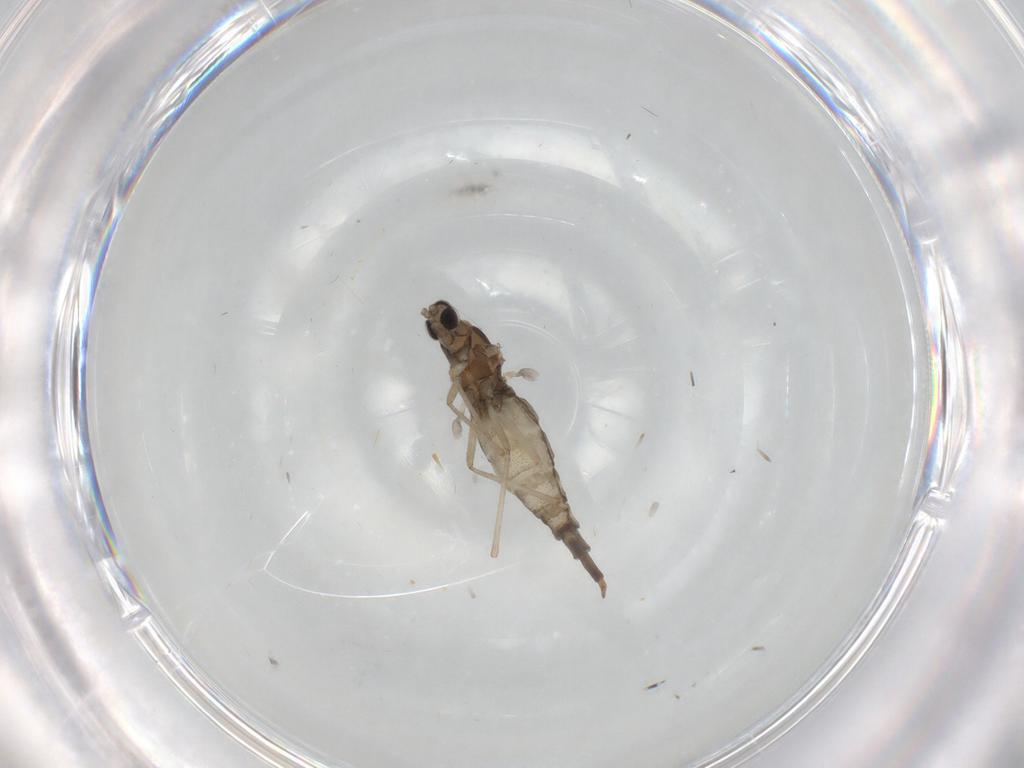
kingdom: Animalia
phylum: Arthropoda
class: Insecta
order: Diptera
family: Cecidomyiidae
